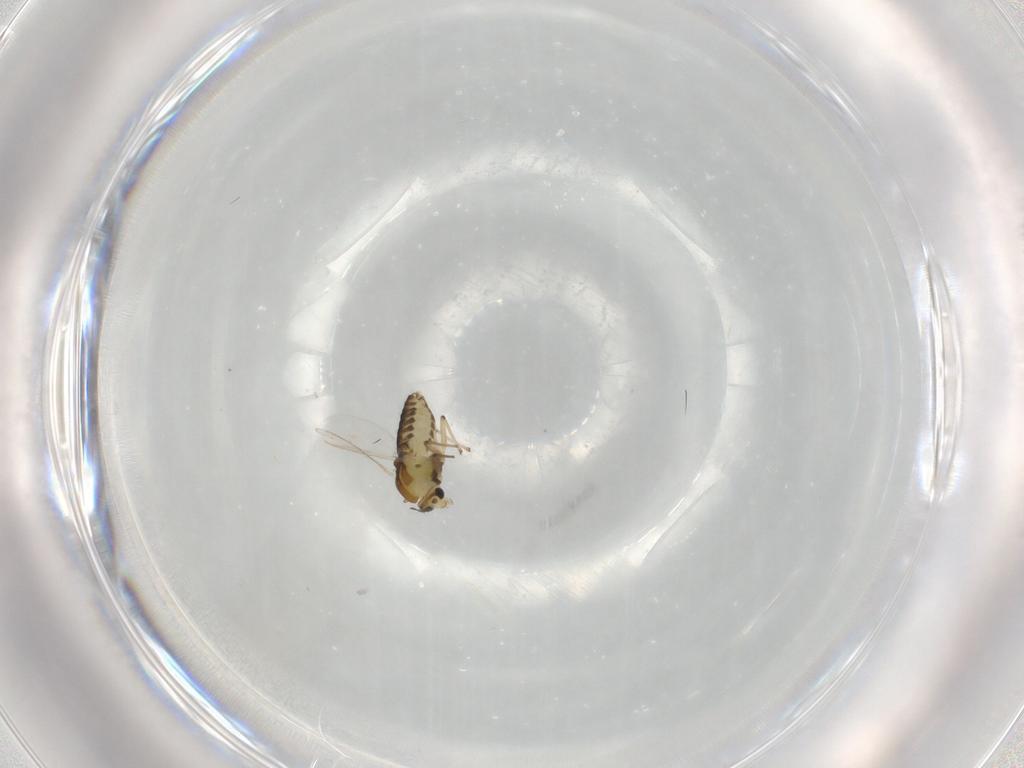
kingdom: Animalia
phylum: Arthropoda
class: Insecta
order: Diptera
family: Chironomidae
